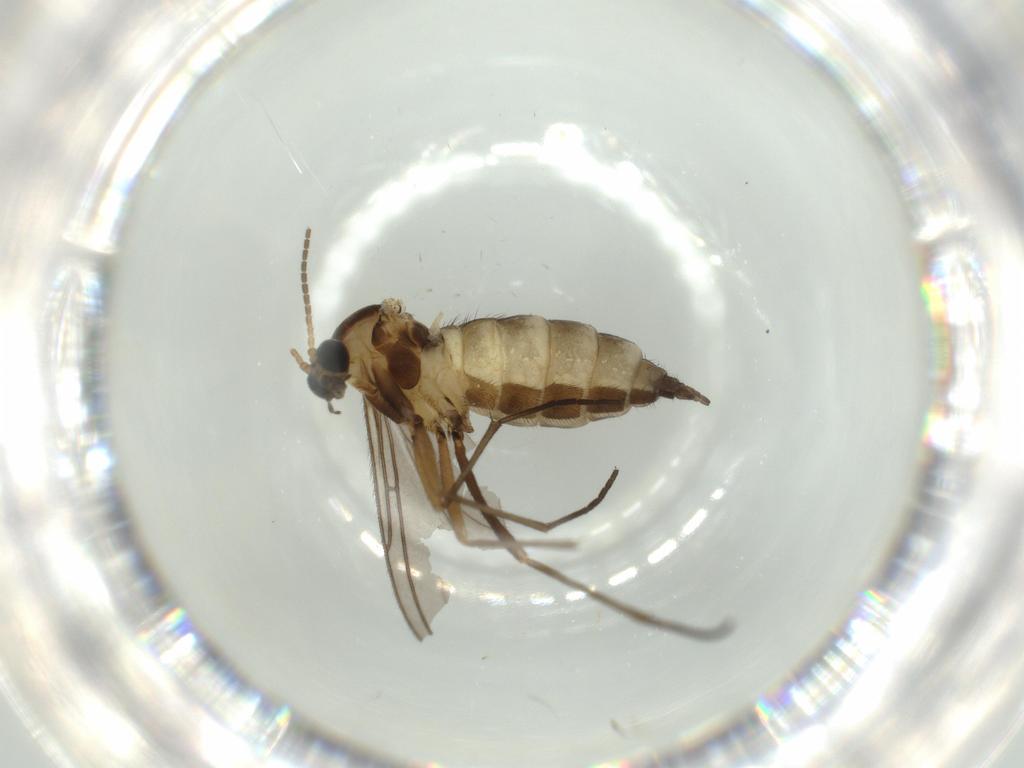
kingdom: Animalia
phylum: Arthropoda
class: Insecta
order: Diptera
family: Sciaridae
